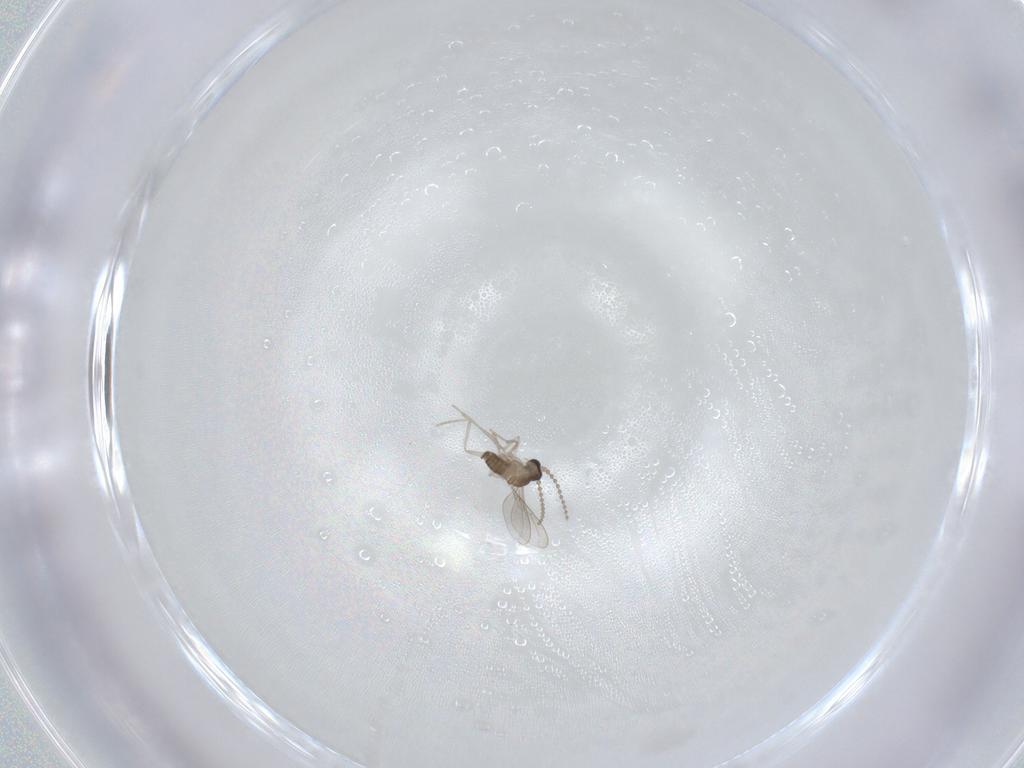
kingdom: Animalia
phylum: Arthropoda
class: Insecta
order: Diptera
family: Cecidomyiidae
